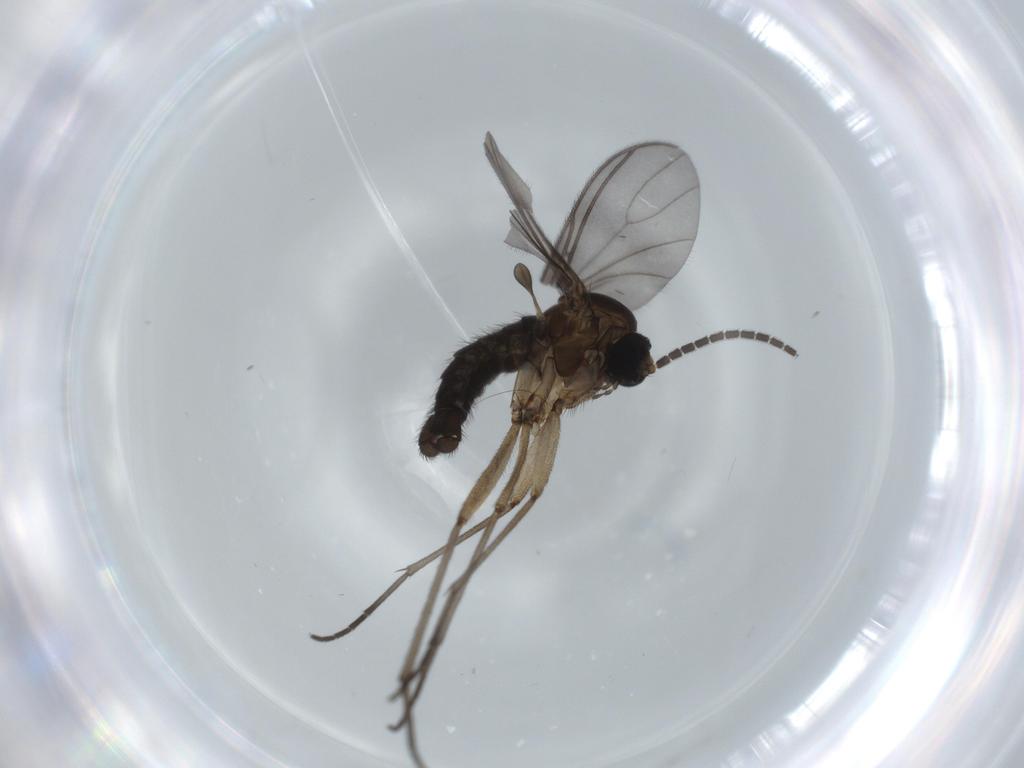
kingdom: Animalia
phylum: Arthropoda
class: Insecta
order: Diptera
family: Sciaridae
